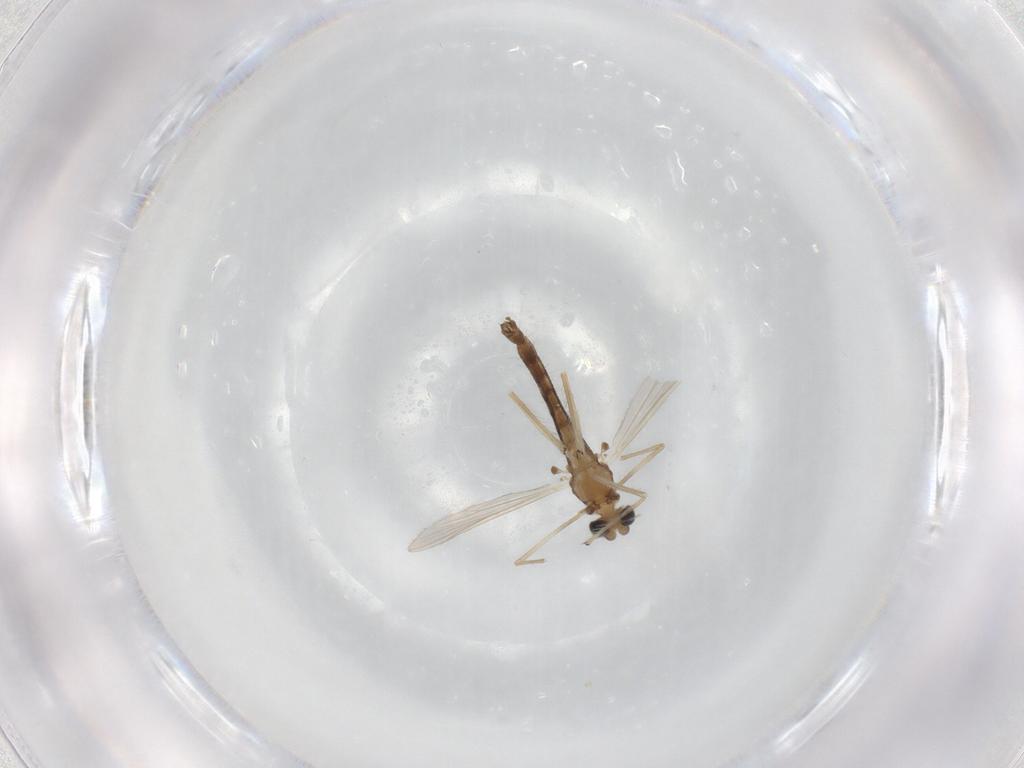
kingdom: Animalia
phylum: Arthropoda
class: Insecta
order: Diptera
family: Chironomidae
